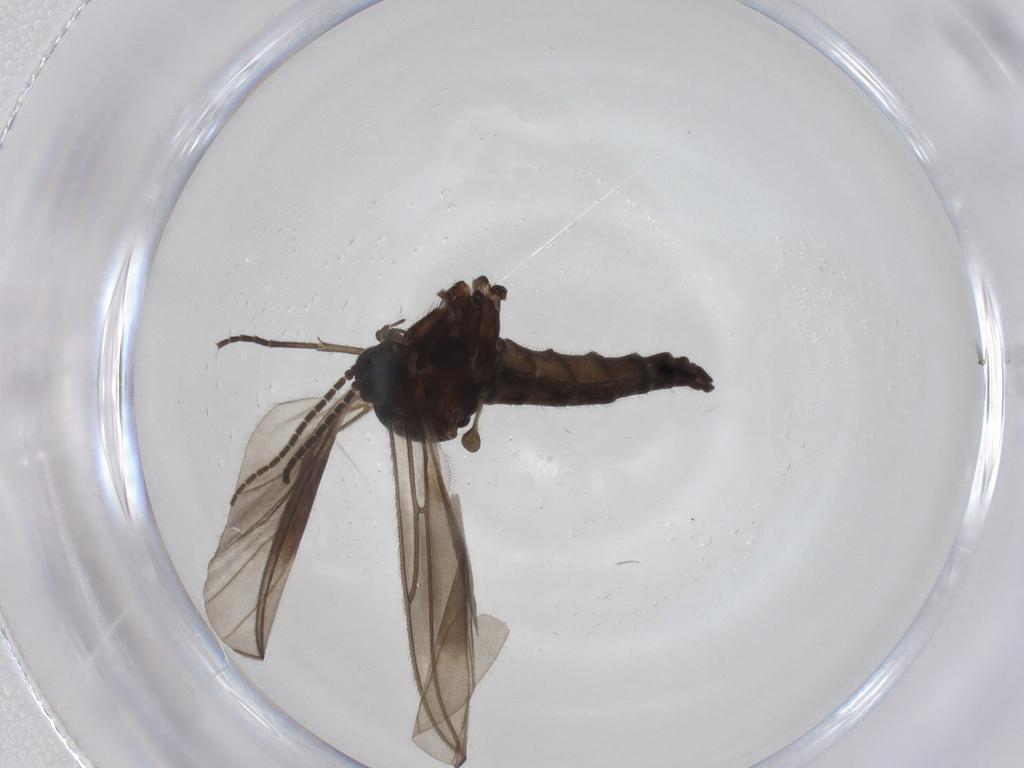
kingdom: Animalia
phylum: Arthropoda
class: Insecta
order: Diptera
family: Sciaridae
